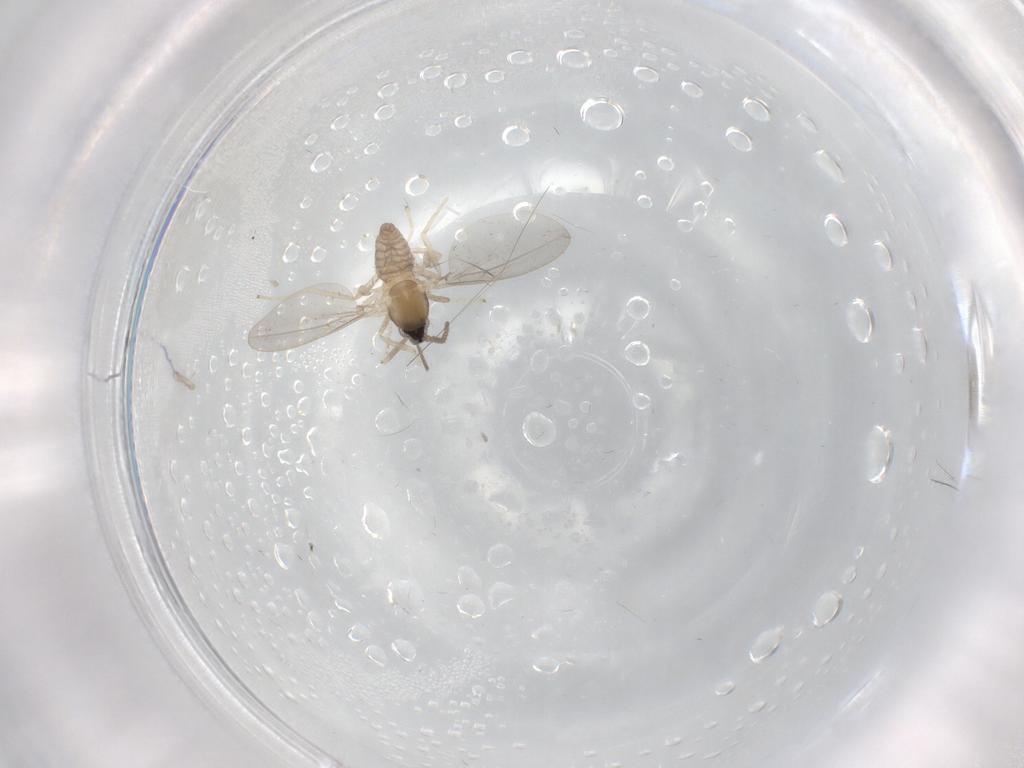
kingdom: Animalia
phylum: Arthropoda
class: Insecta
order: Diptera
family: Cecidomyiidae
